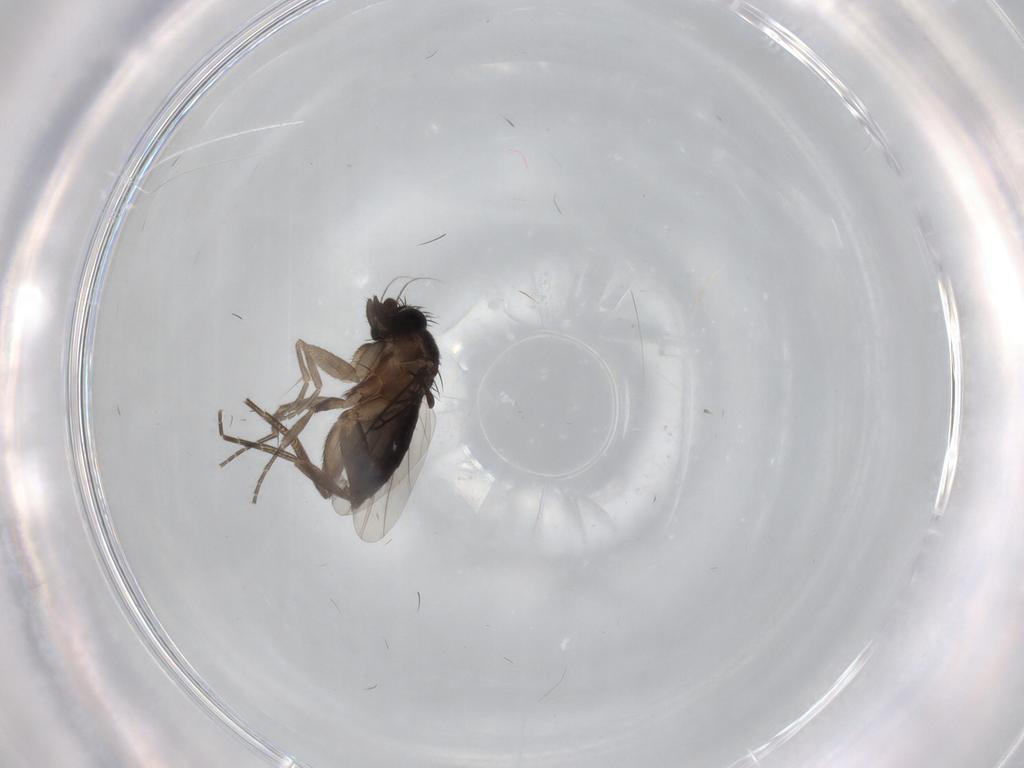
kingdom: Animalia
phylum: Arthropoda
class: Insecta
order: Diptera
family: Phoridae
